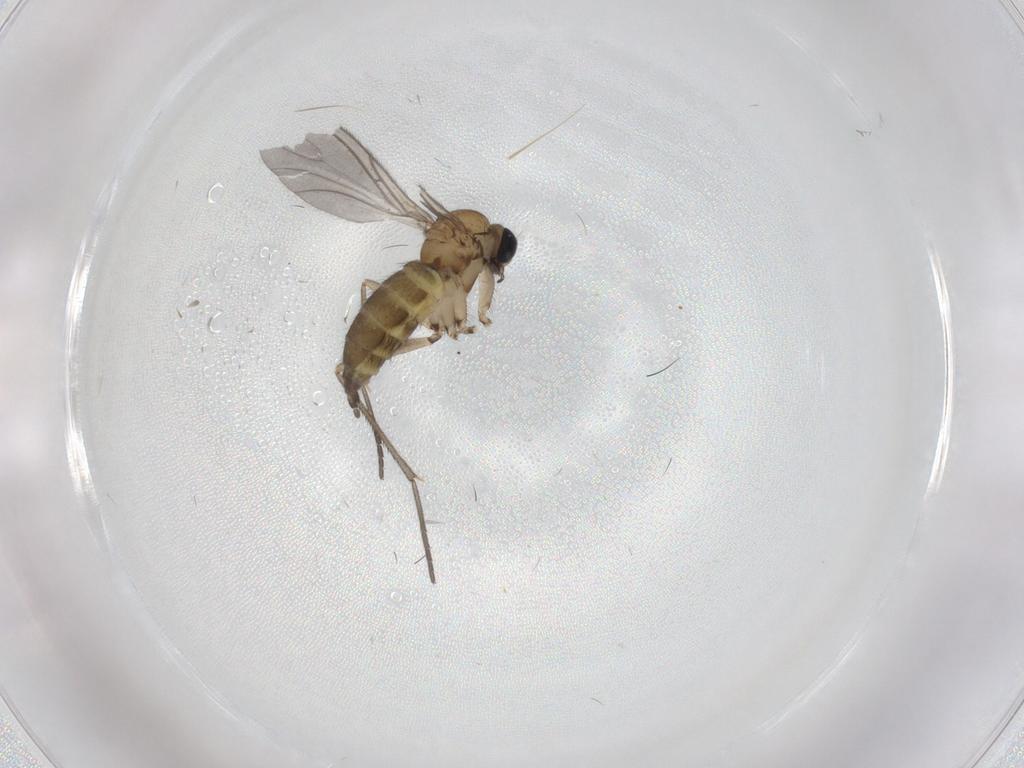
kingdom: Animalia
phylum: Arthropoda
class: Insecta
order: Diptera
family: Sciaridae
